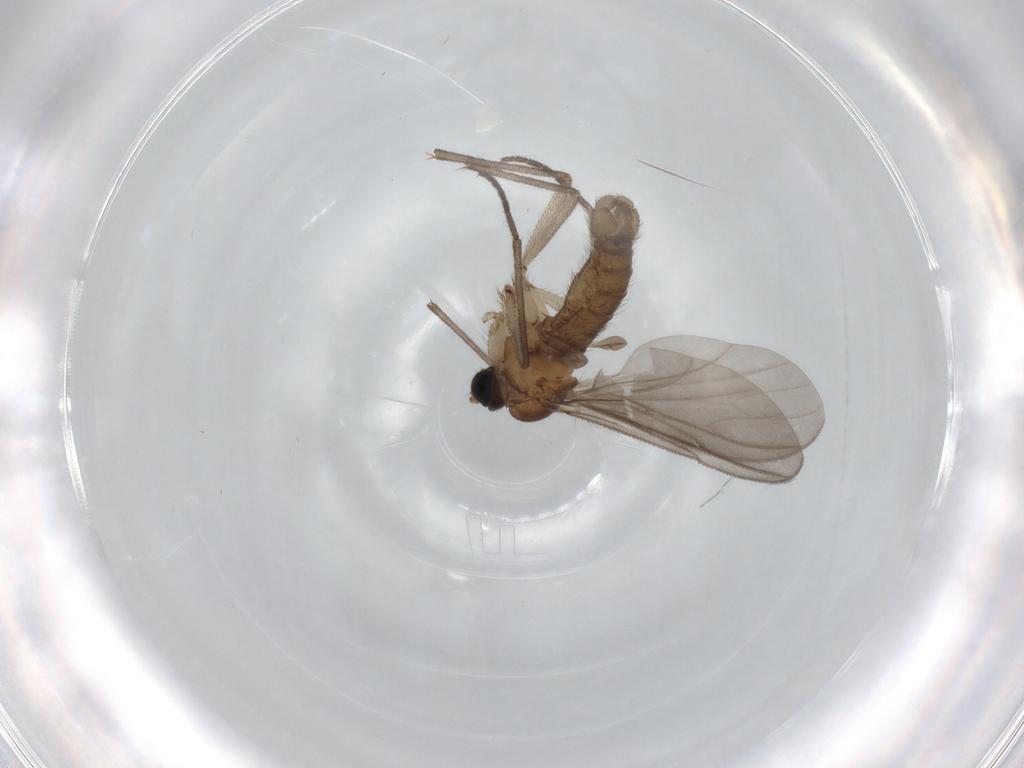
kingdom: Animalia
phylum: Arthropoda
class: Insecta
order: Diptera
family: Sciaridae
